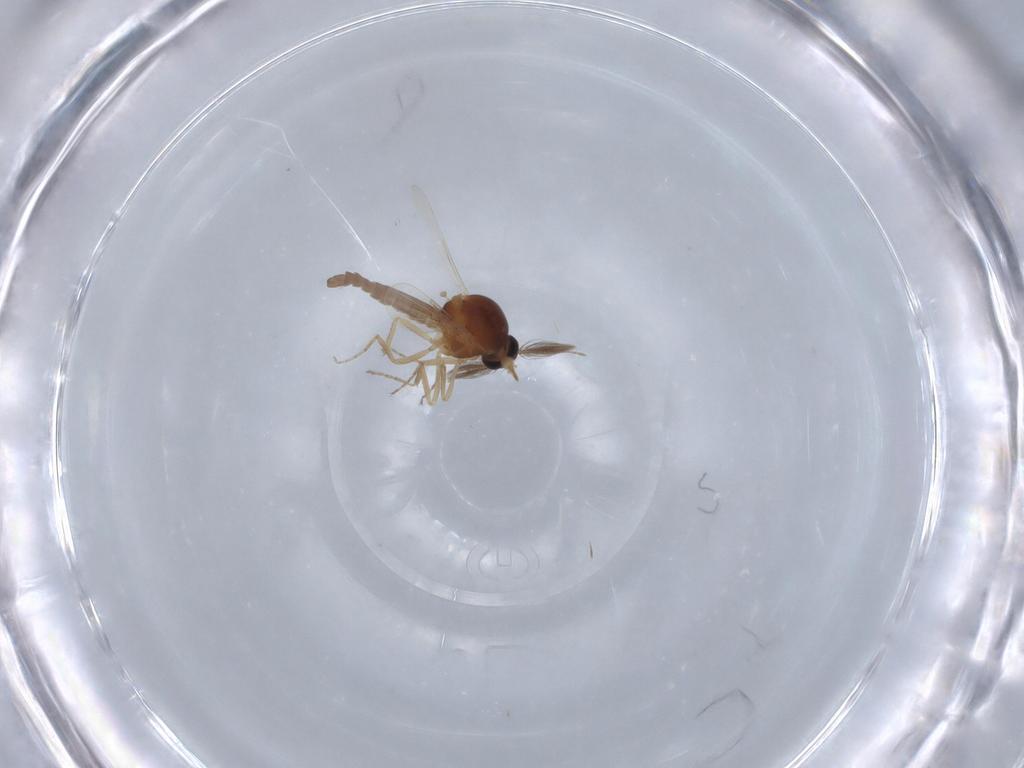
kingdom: Animalia
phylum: Arthropoda
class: Insecta
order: Diptera
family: Ceratopogonidae
